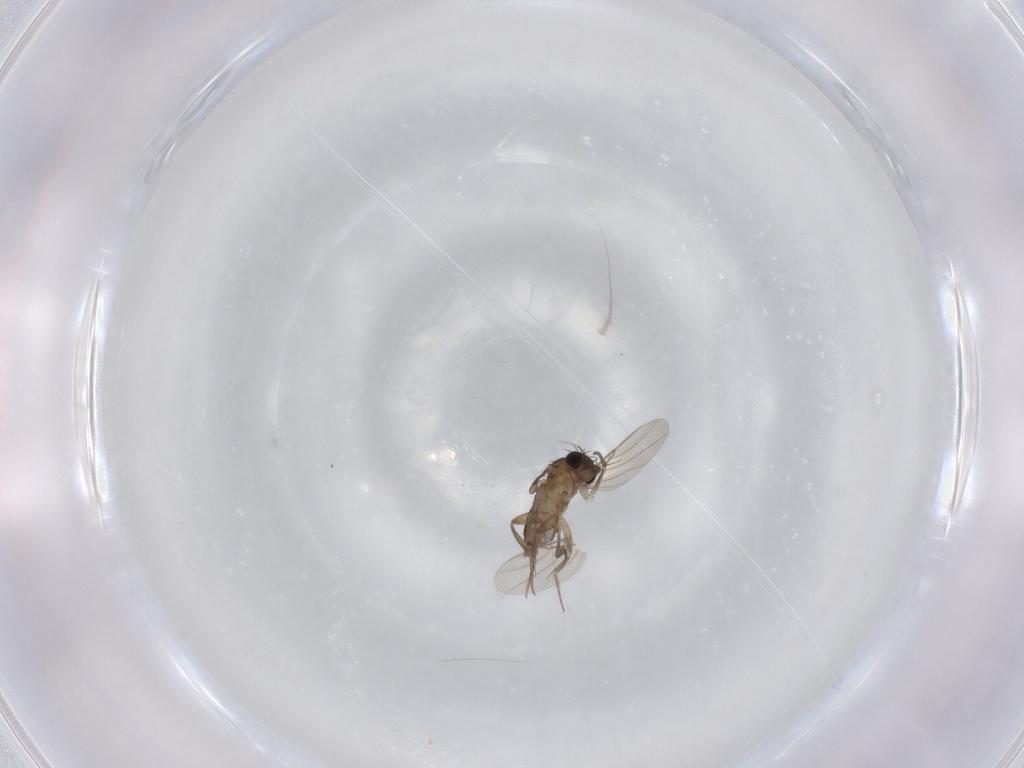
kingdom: Animalia
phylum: Arthropoda
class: Insecta
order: Diptera
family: Phoridae
